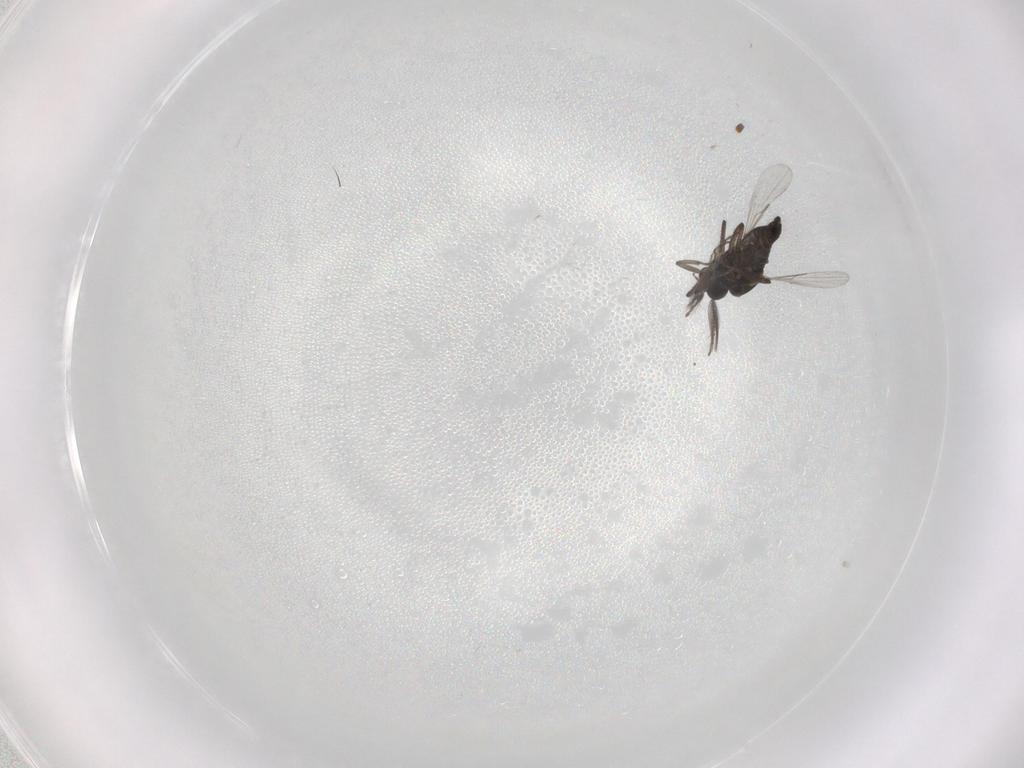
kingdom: Animalia
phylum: Arthropoda
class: Insecta
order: Diptera
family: Ceratopogonidae
